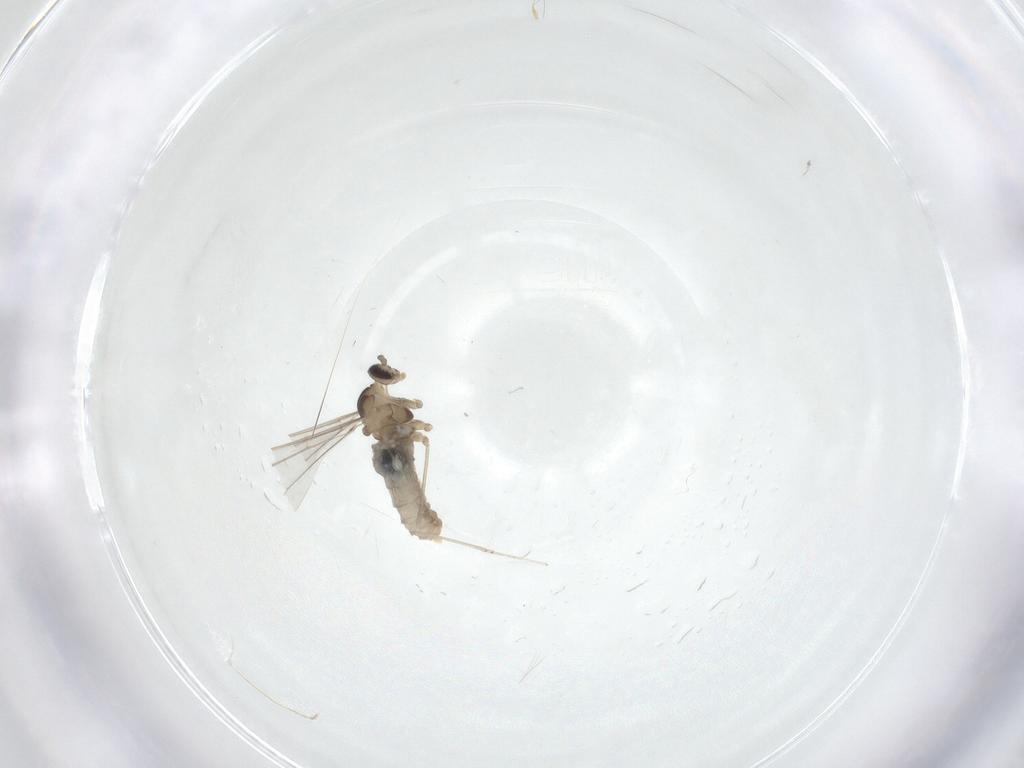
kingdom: Animalia
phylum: Arthropoda
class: Insecta
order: Diptera
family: Cecidomyiidae
